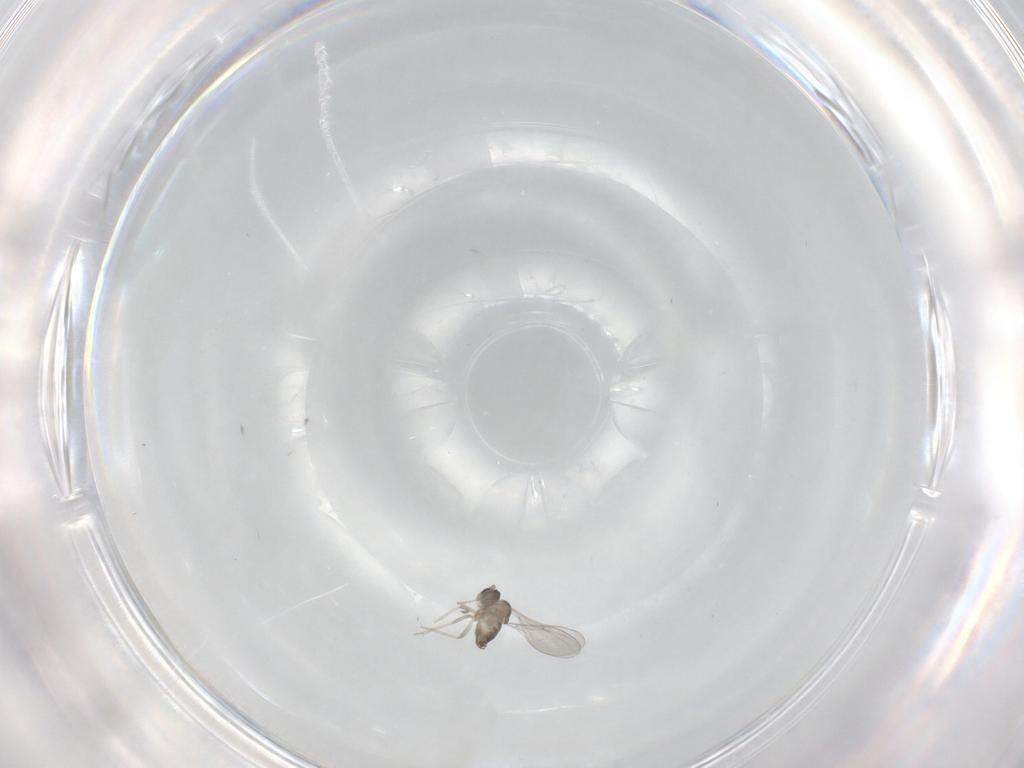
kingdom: Animalia
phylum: Arthropoda
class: Insecta
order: Diptera
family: Cecidomyiidae
